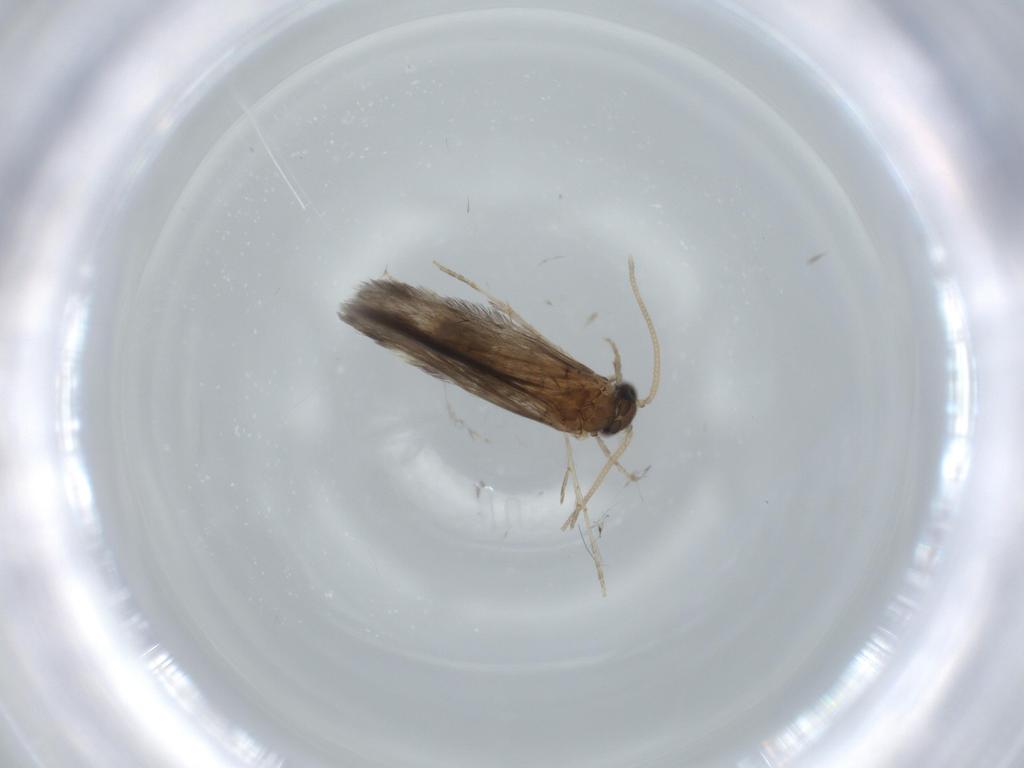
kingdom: Animalia
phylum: Arthropoda
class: Insecta
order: Trichoptera
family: Hydroptilidae
